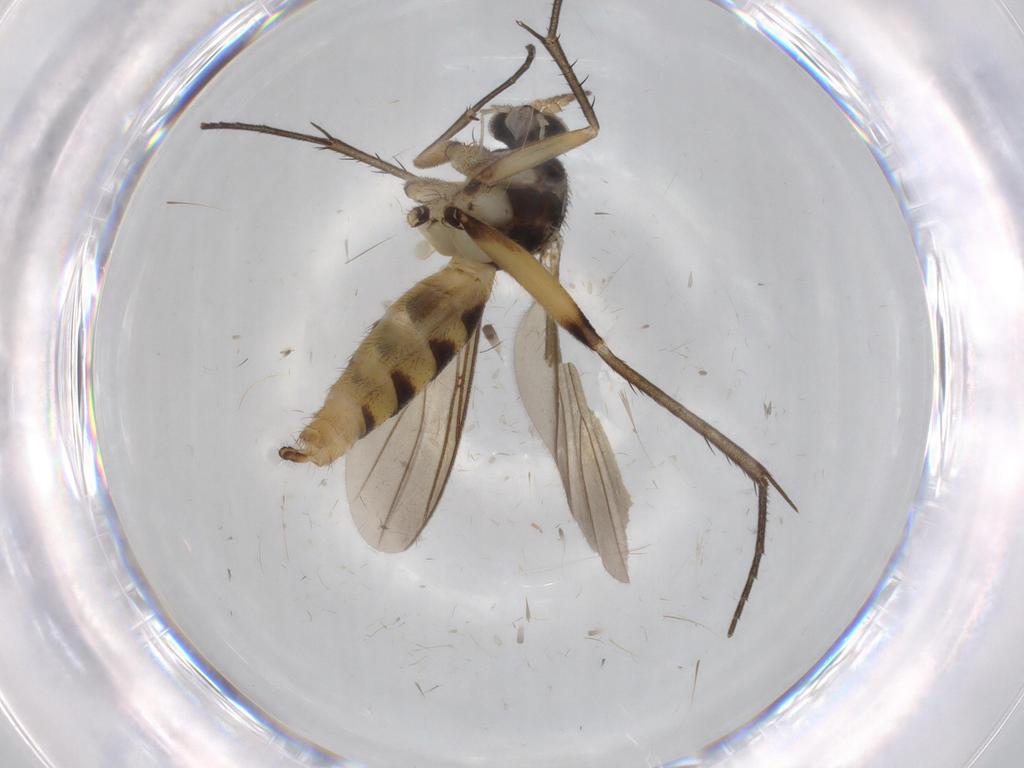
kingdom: Animalia
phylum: Arthropoda
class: Insecta
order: Diptera
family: Cecidomyiidae
